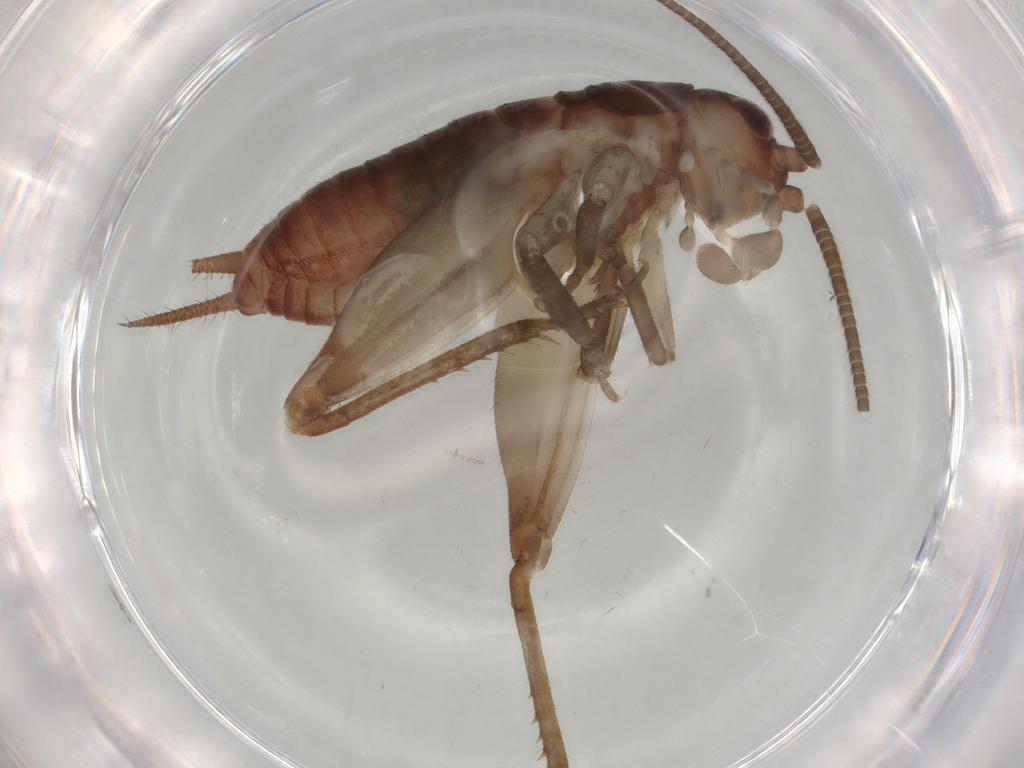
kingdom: Animalia
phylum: Arthropoda
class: Insecta
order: Orthoptera
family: Gryllidae
